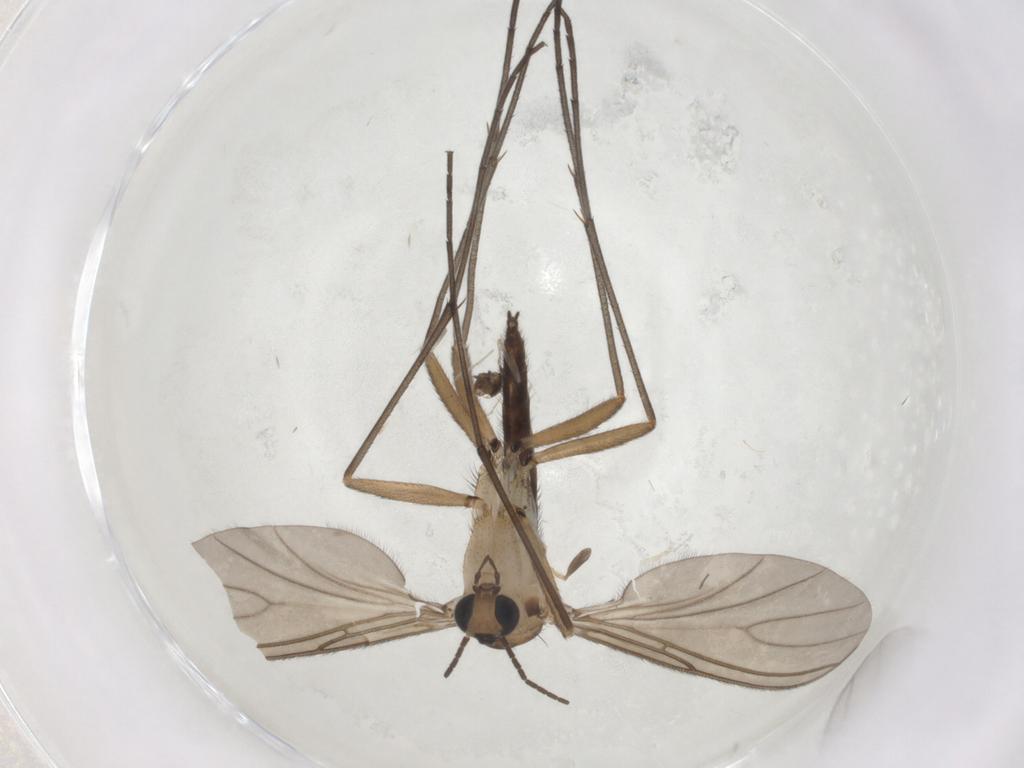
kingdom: Animalia
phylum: Arthropoda
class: Insecta
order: Diptera
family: Sciaridae
